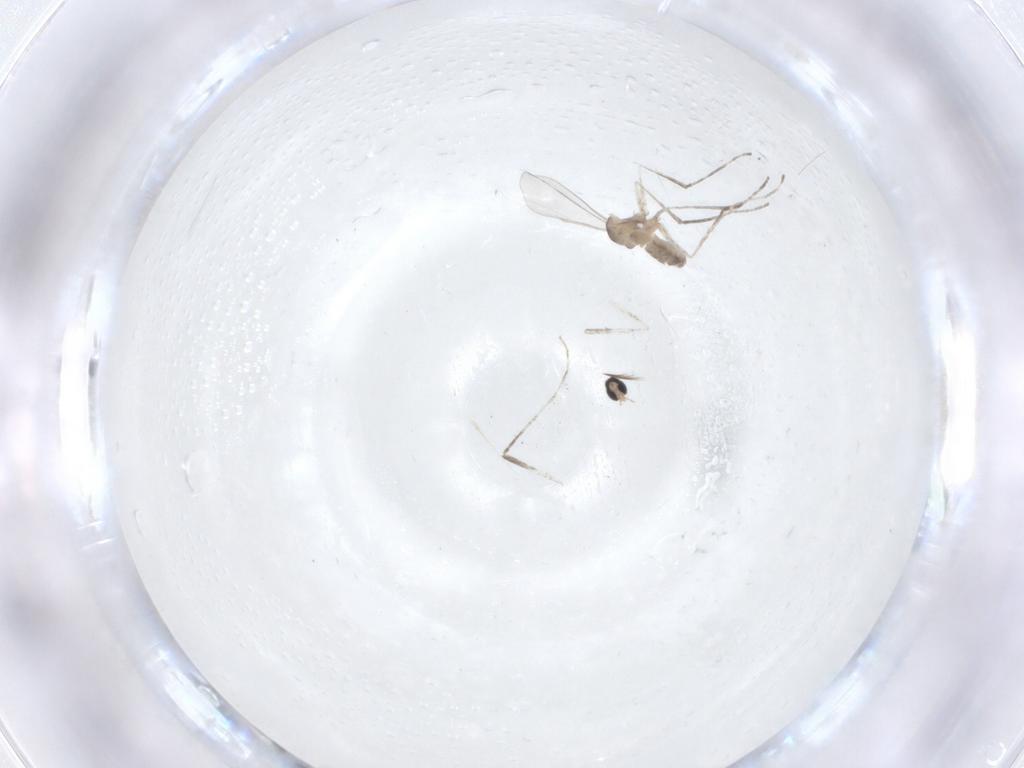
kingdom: Animalia
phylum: Arthropoda
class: Insecta
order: Diptera
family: Cecidomyiidae
